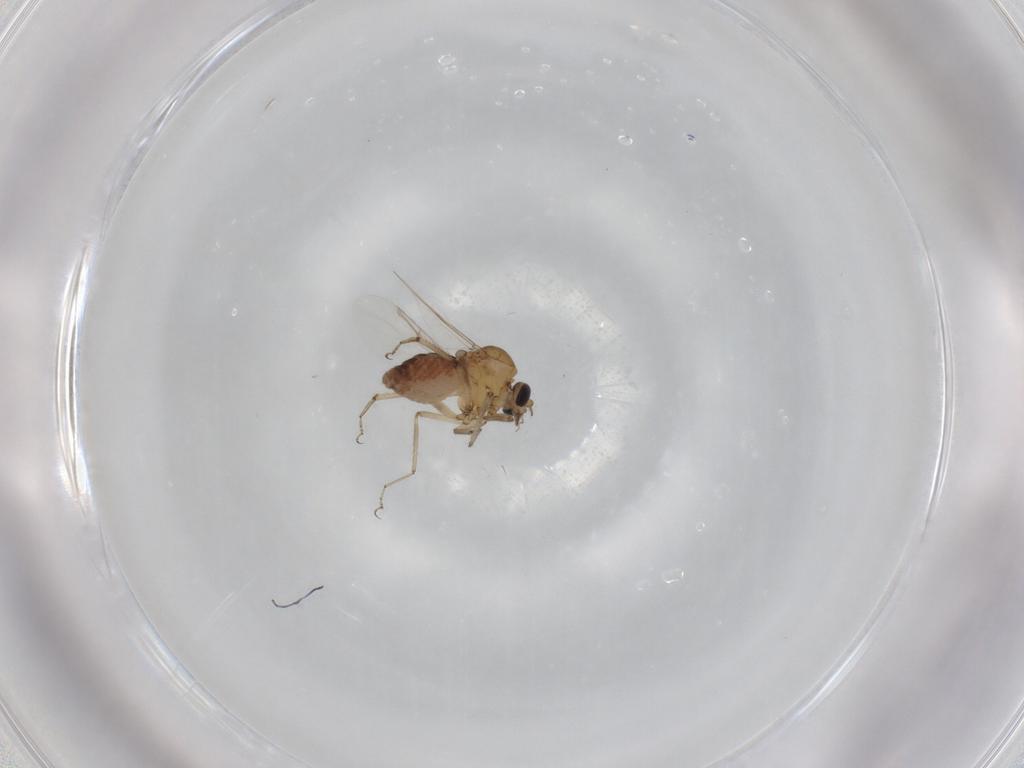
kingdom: Animalia
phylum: Arthropoda
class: Insecta
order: Diptera
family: Ceratopogonidae
